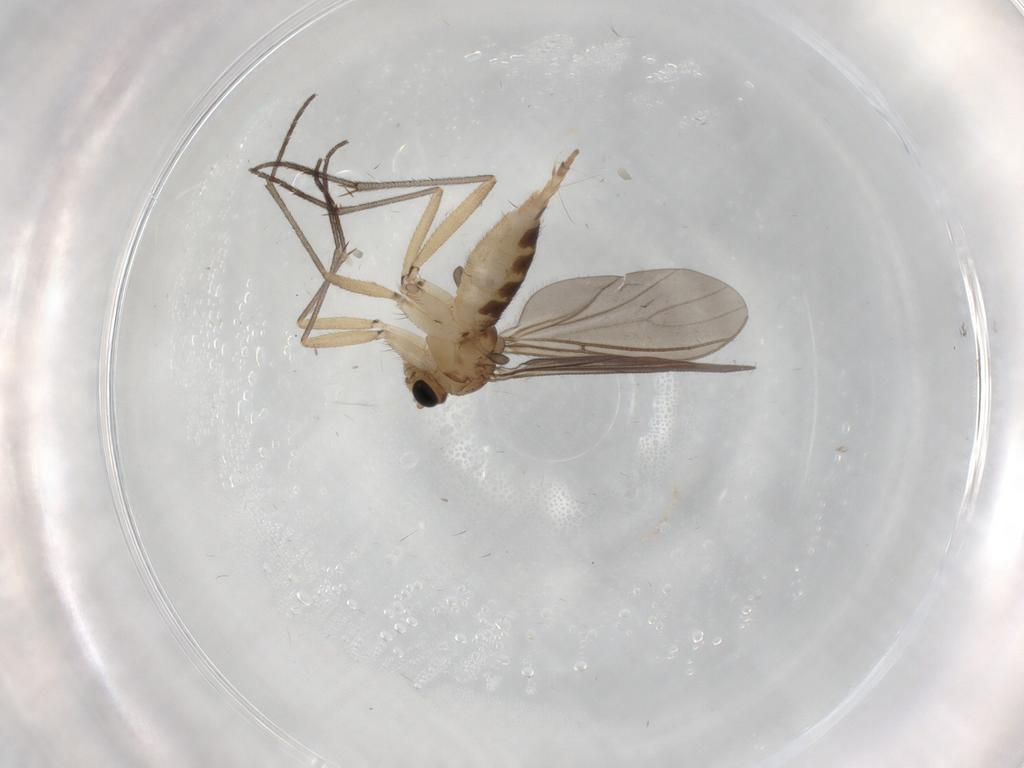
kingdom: Animalia
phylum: Arthropoda
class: Insecta
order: Diptera
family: Sciaridae
